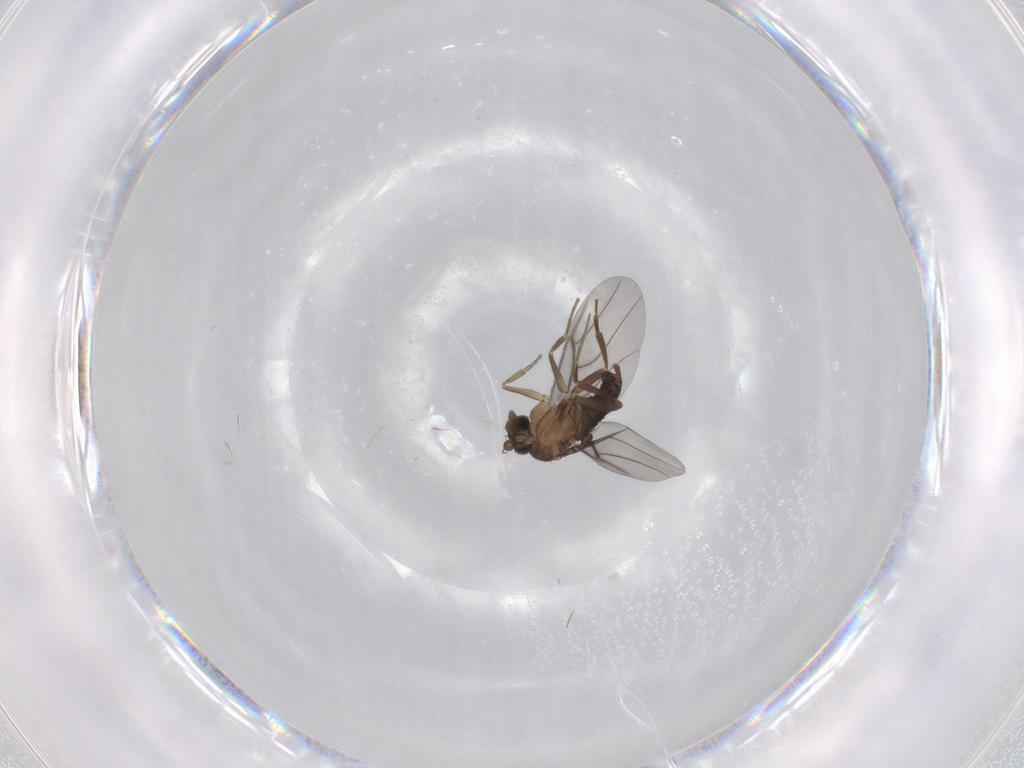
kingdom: Animalia
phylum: Arthropoda
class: Insecta
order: Diptera
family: Phoridae
